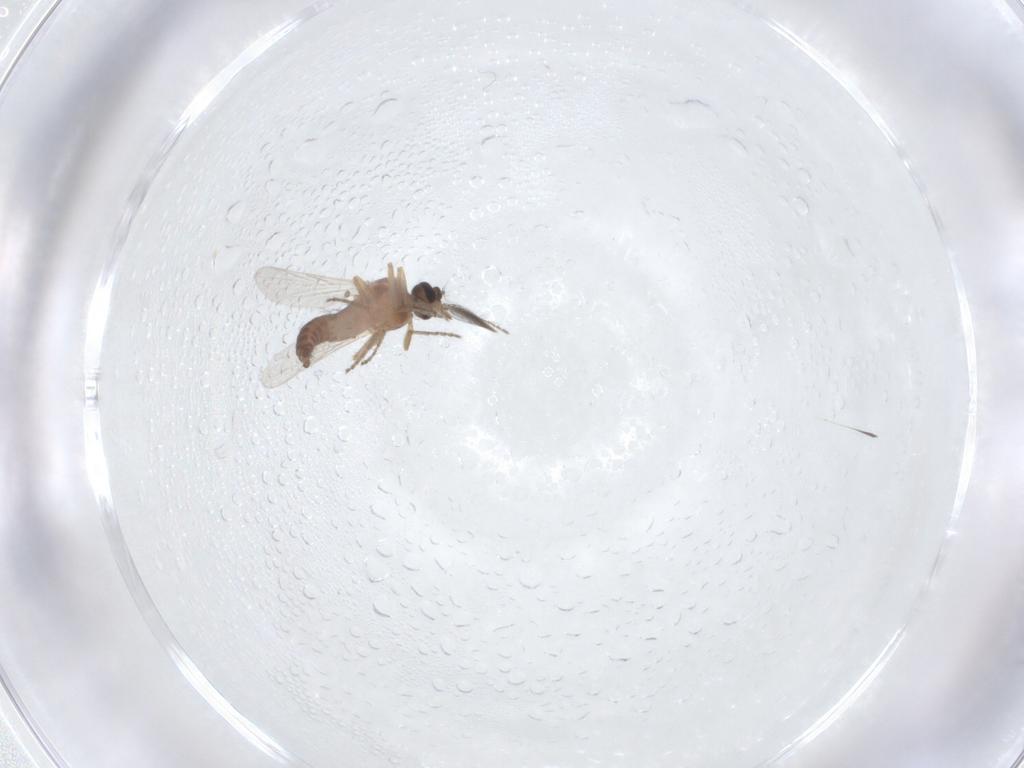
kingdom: Animalia
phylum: Arthropoda
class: Insecta
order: Diptera
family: Ceratopogonidae
